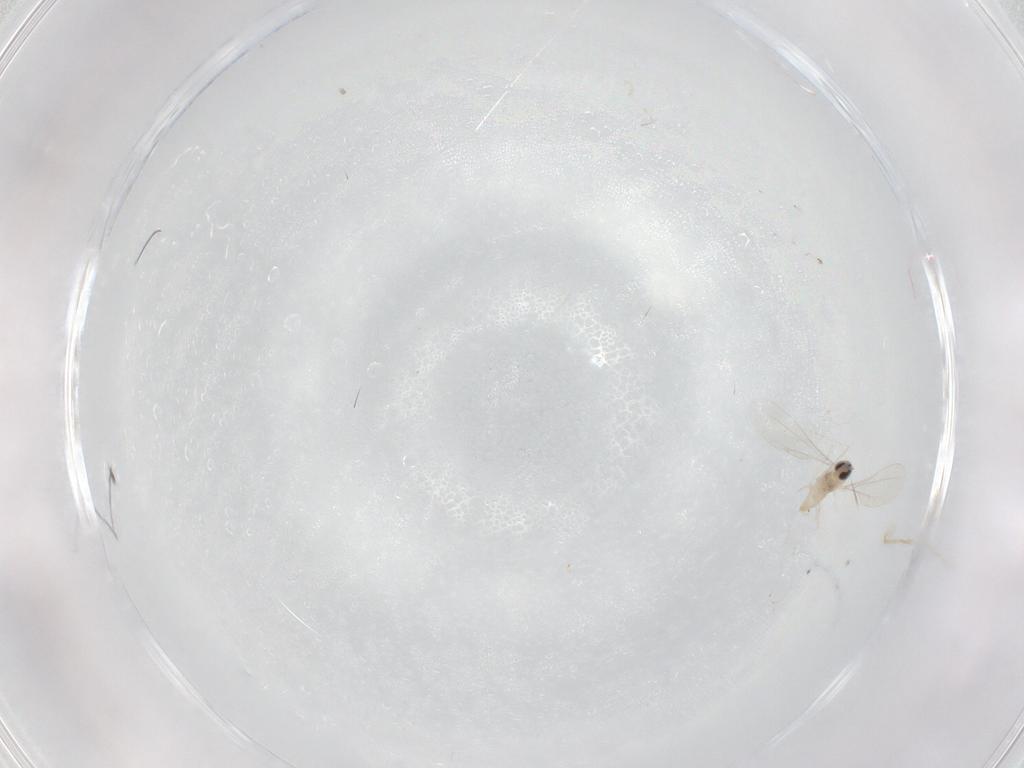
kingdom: Animalia
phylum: Arthropoda
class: Insecta
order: Diptera
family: Cecidomyiidae
